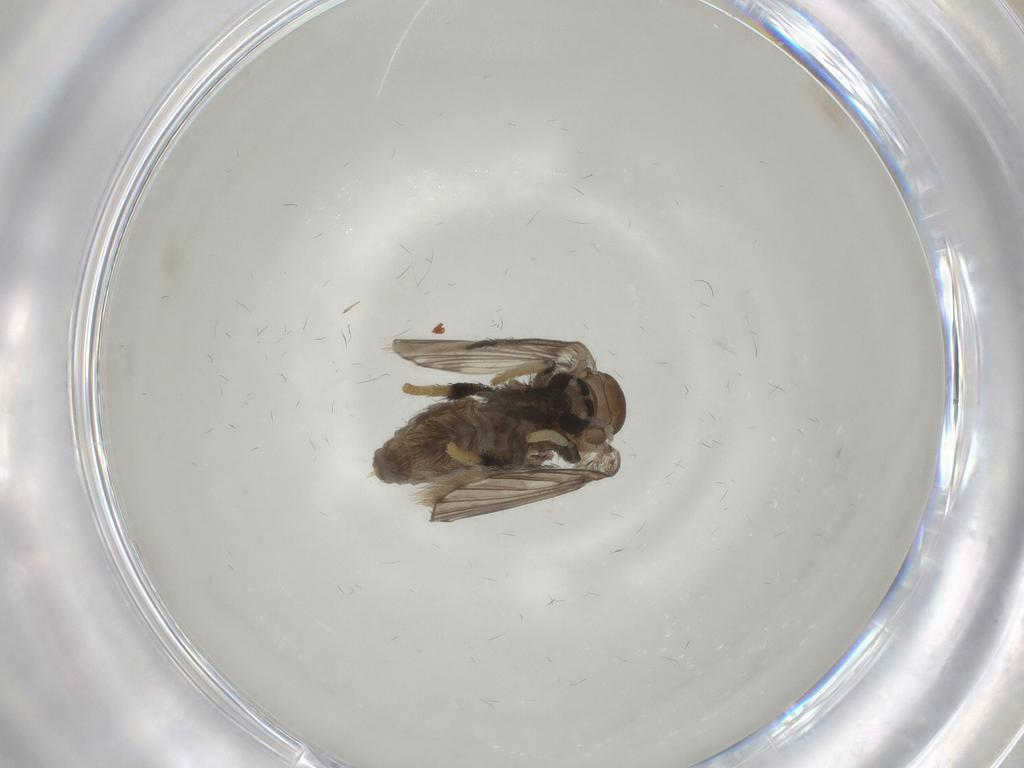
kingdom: Animalia
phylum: Arthropoda
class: Insecta
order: Diptera
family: Psychodidae
